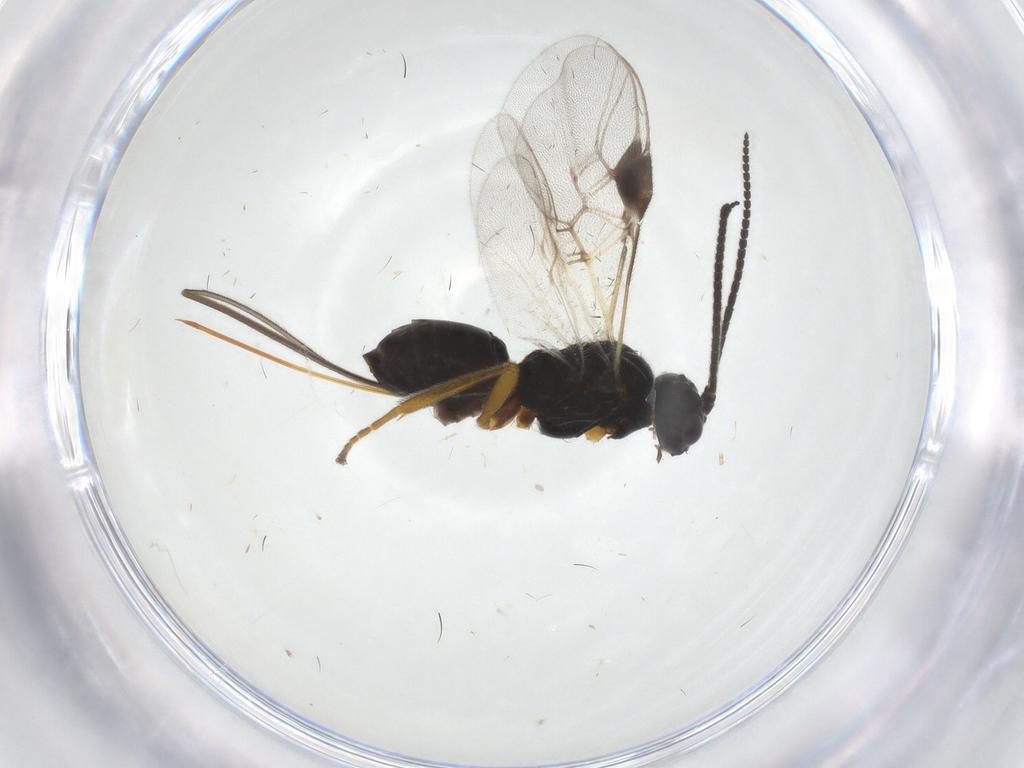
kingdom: Animalia
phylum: Arthropoda
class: Insecta
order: Hymenoptera
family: Braconidae
